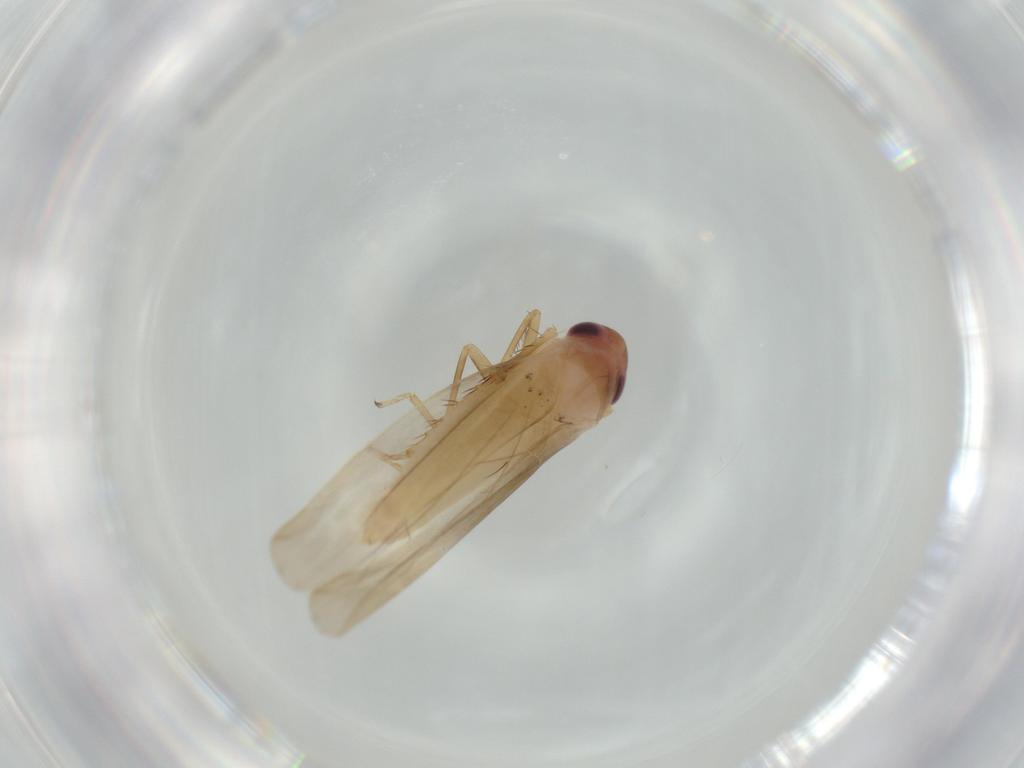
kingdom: Animalia
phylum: Arthropoda
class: Insecta
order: Hemiptera
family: Cicadellidae
